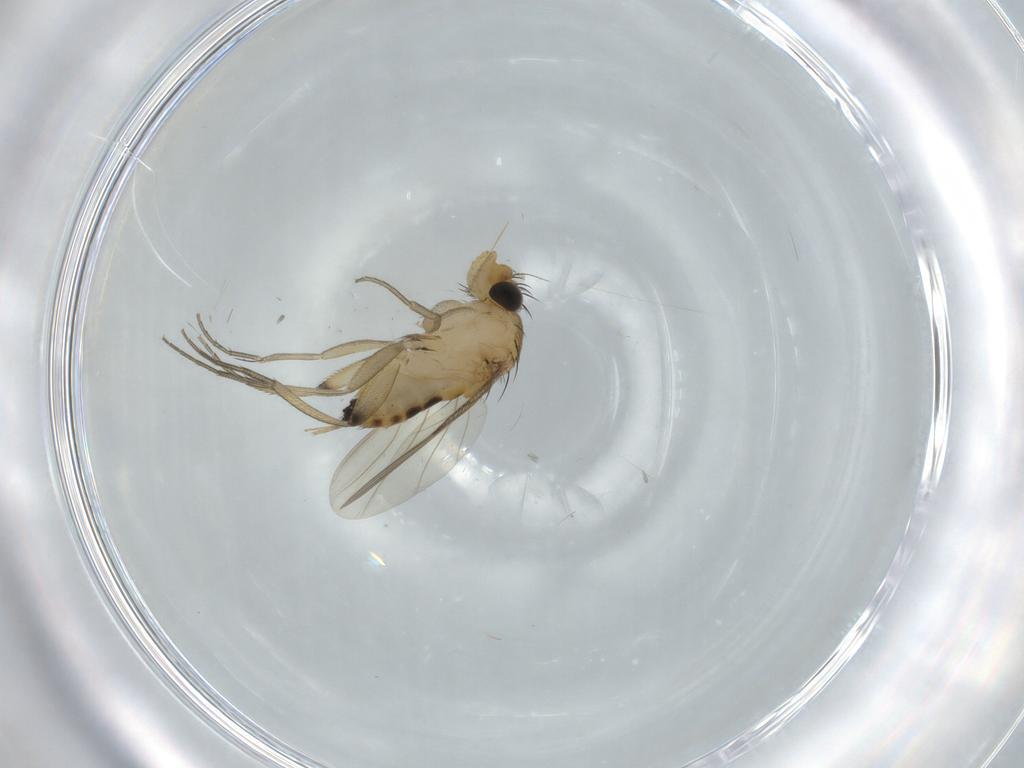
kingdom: Animalia
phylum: Arthropoda
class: Insecta
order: Diptera
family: Phoridae
